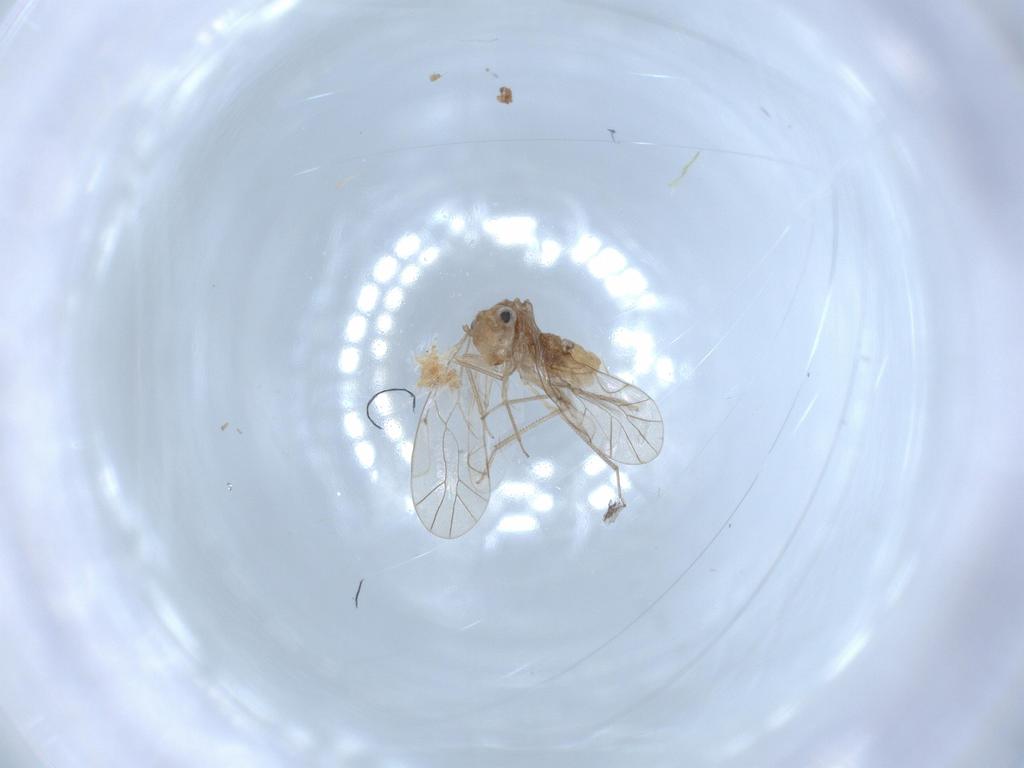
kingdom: Animalia
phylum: Arthropoda
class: Insecta
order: Psocodea
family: Lachesillidae
